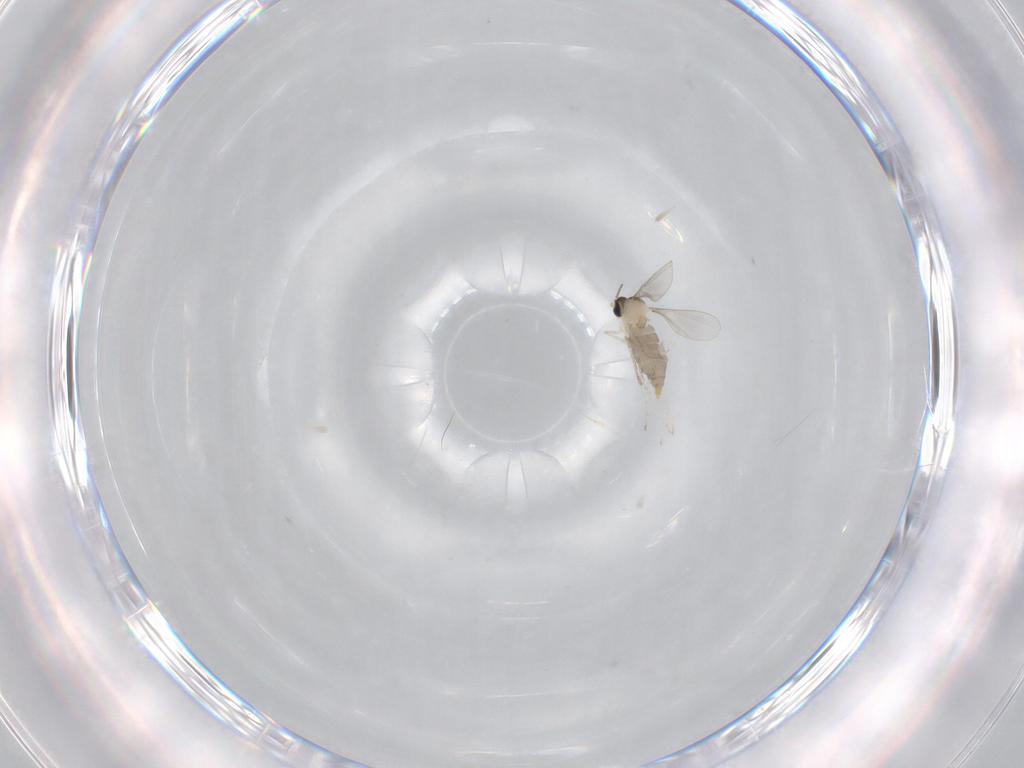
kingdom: Animalia
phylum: Arthropoda
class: Insecta
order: Diptera
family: Cecidomyiidae
